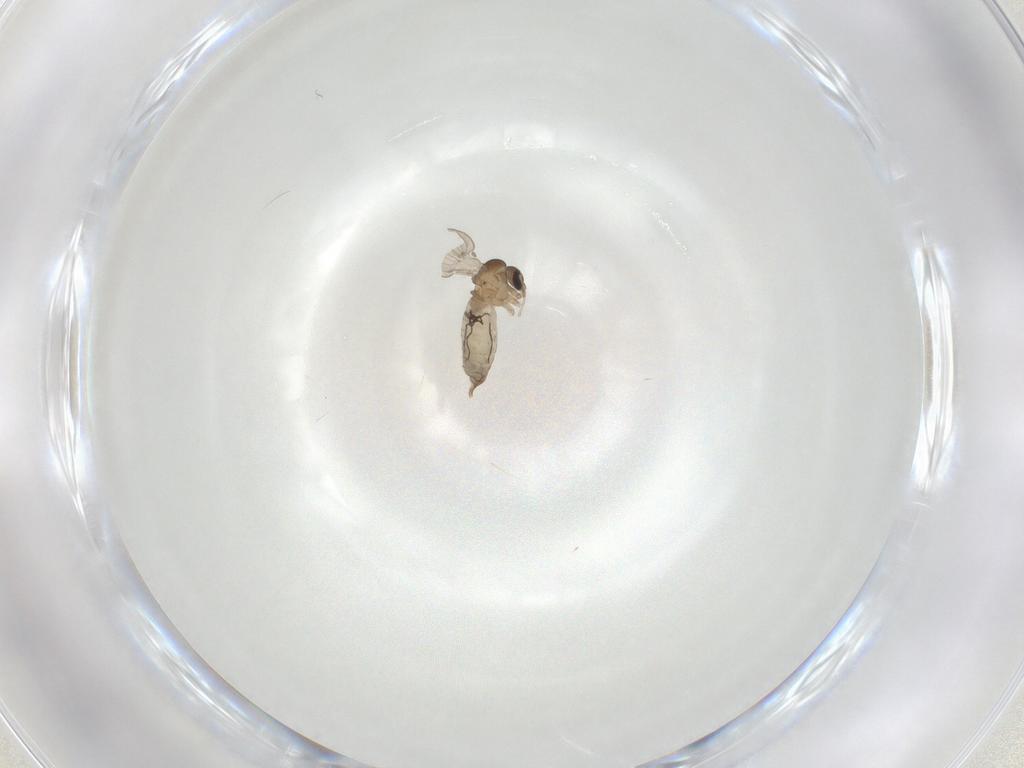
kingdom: Animalia
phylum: Arthropoda
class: Insecta
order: Diptera
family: Psychodidae
